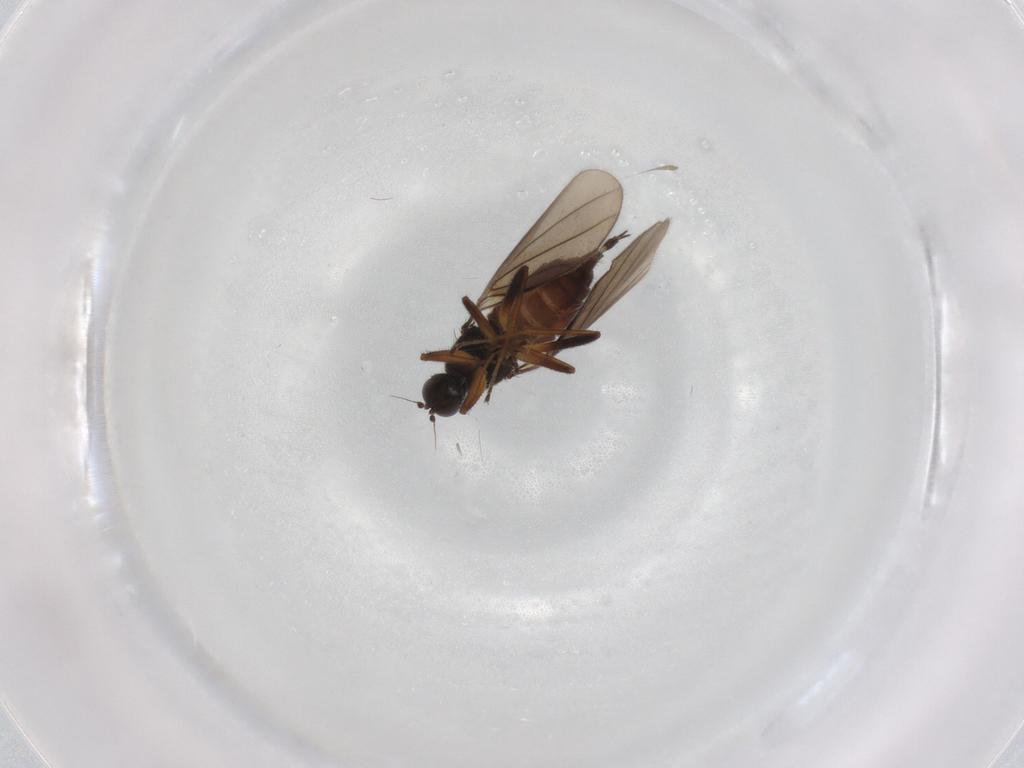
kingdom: Animalia
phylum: Arthropoda
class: Insecta
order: Diptera
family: Hybotidae
